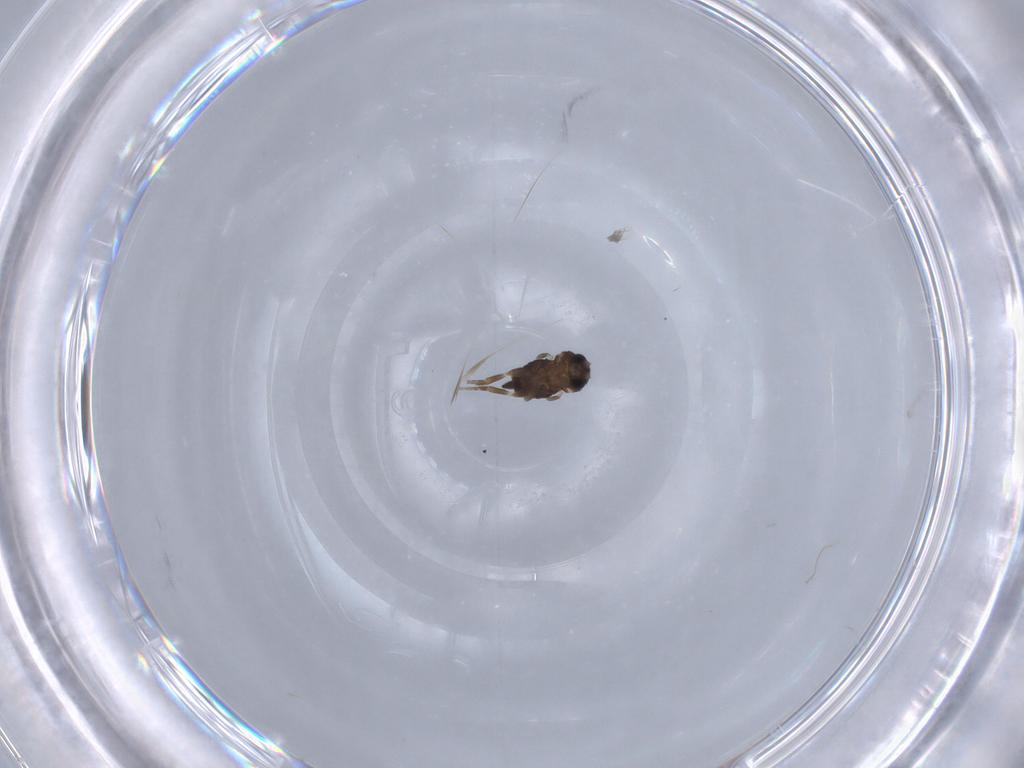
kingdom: Animalia
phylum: Arthropoda
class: Insecta
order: Diptera
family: Phoridae
